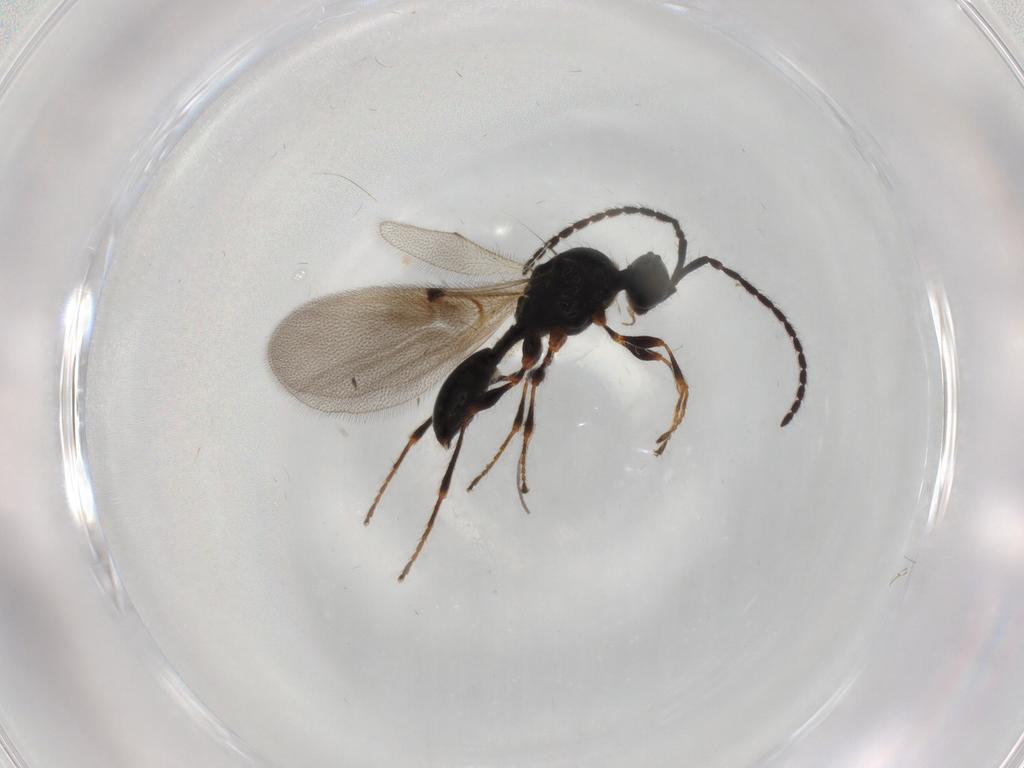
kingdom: Animalia
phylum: Arthropoda
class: Insecta
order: Hymenoptera
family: Diapriidae
